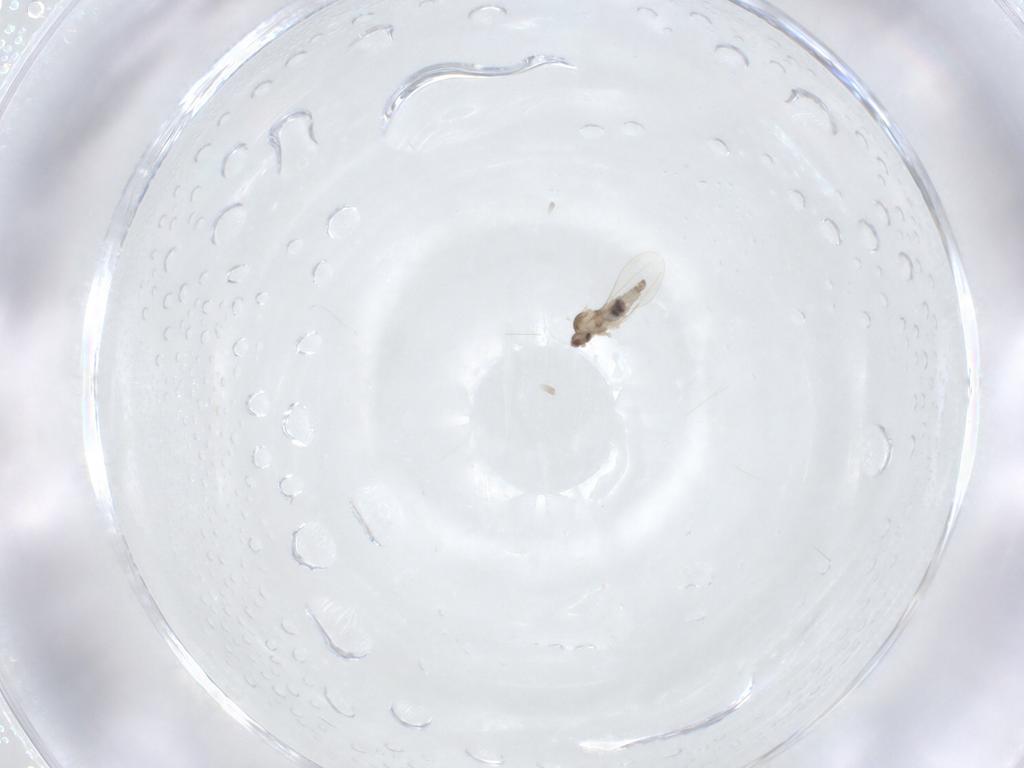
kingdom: Animalia
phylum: Arthropoda
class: Insecta
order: Diptera
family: Cecidomyiidae
